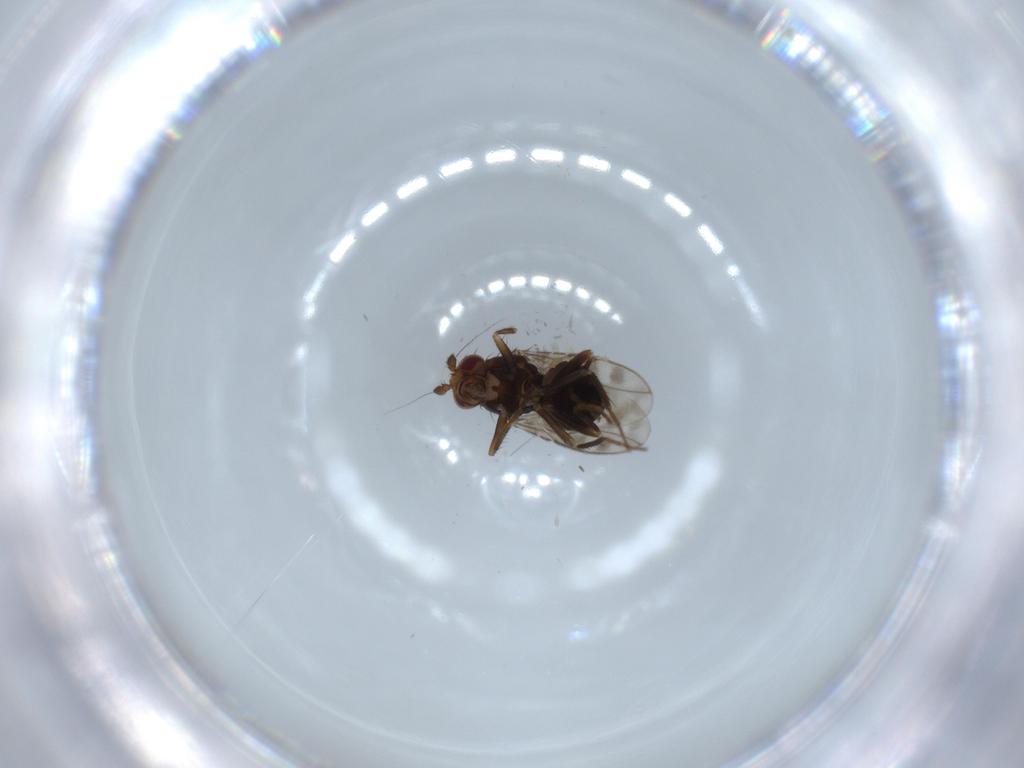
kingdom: Animalia
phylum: Arthropoda
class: Insecta
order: Diptera
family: Sphaeroceridae
